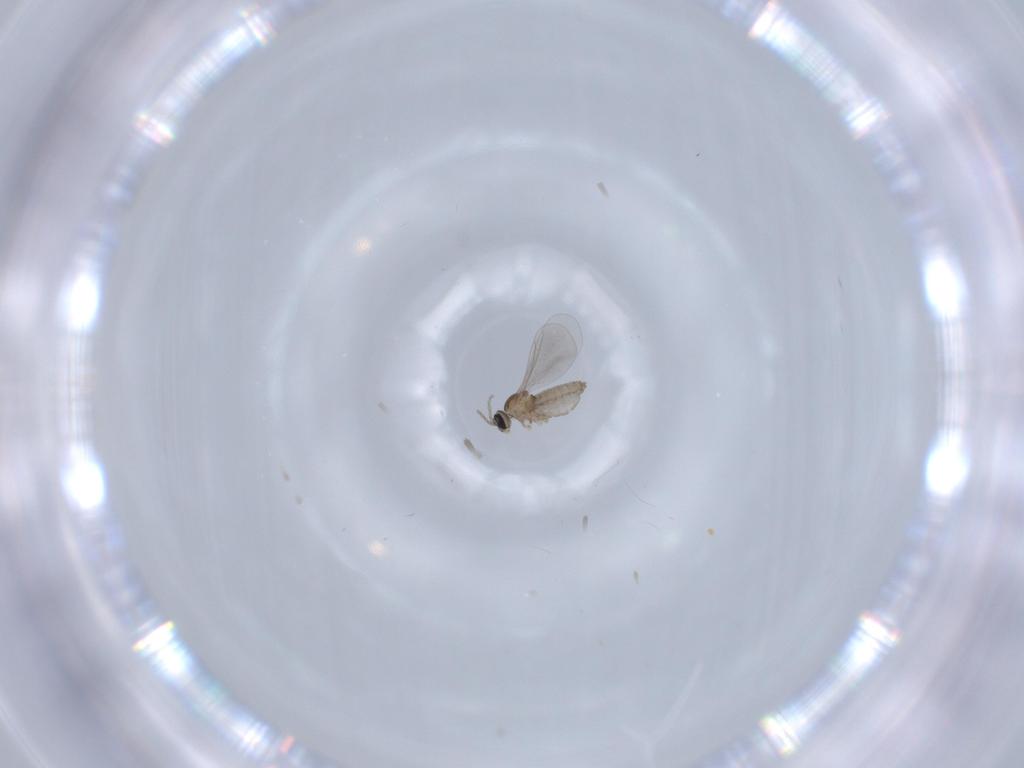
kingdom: Animalia
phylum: Arthropoda
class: Insecta
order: Diptera
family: Cecidomyiidae
